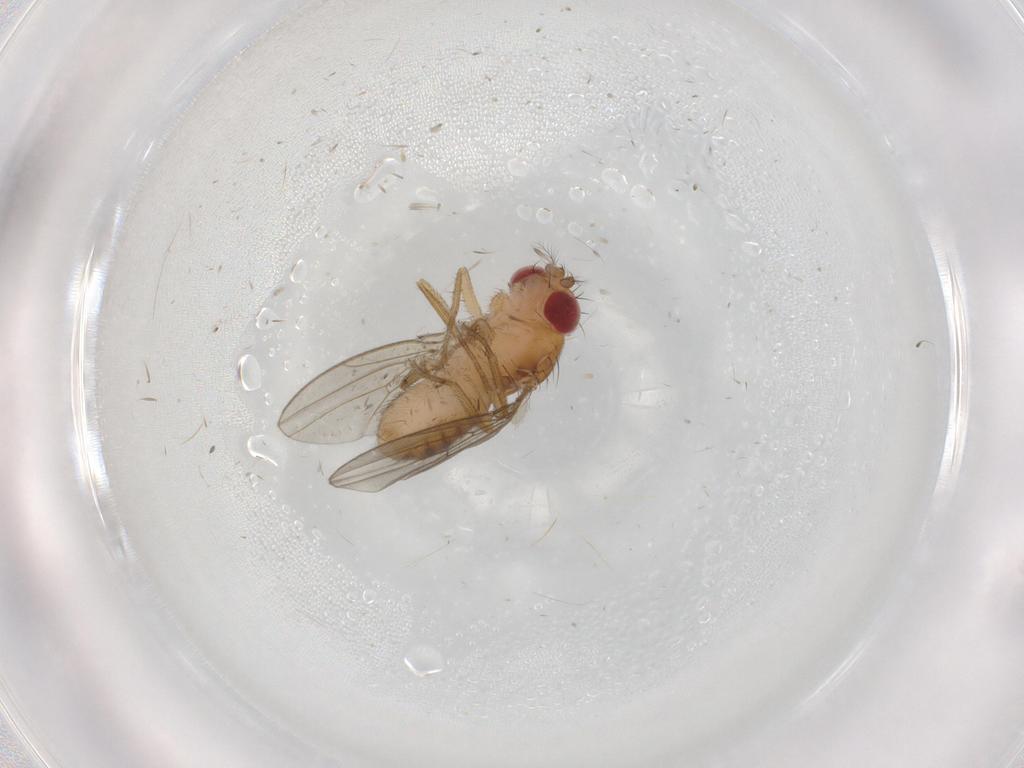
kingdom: Animalia
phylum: Arthropoda
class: Insecta
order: Diptera
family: Drosophilidae
